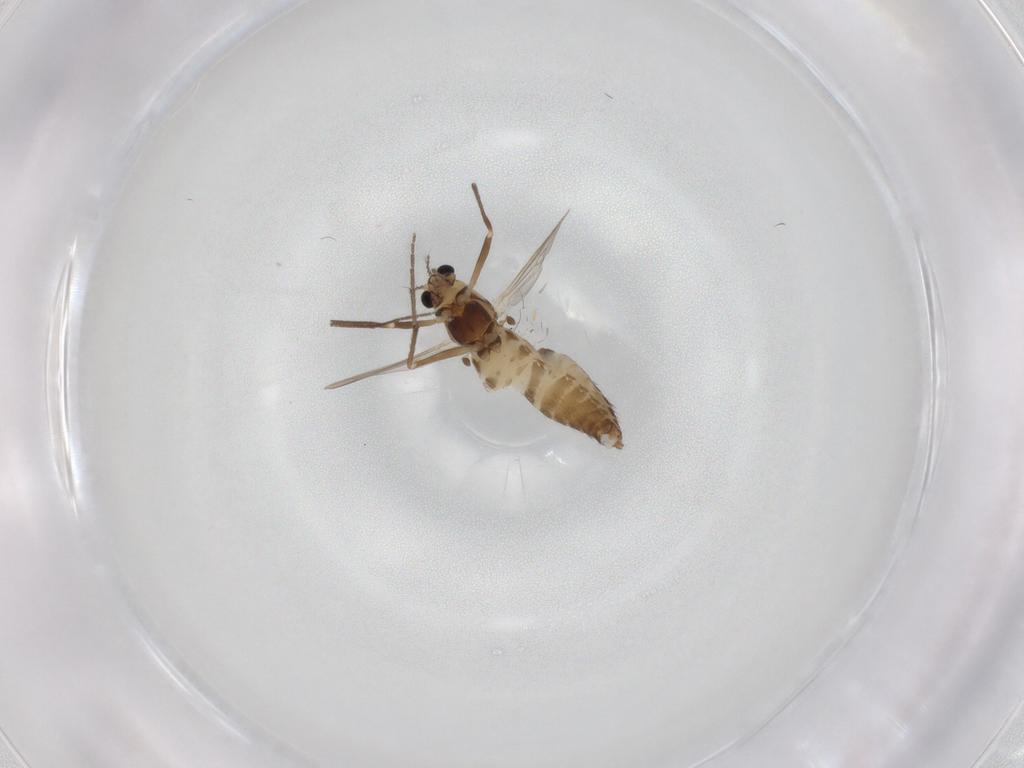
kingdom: Animalia
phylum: Arthropoda
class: Insecta
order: Diptera
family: Chironomidae
